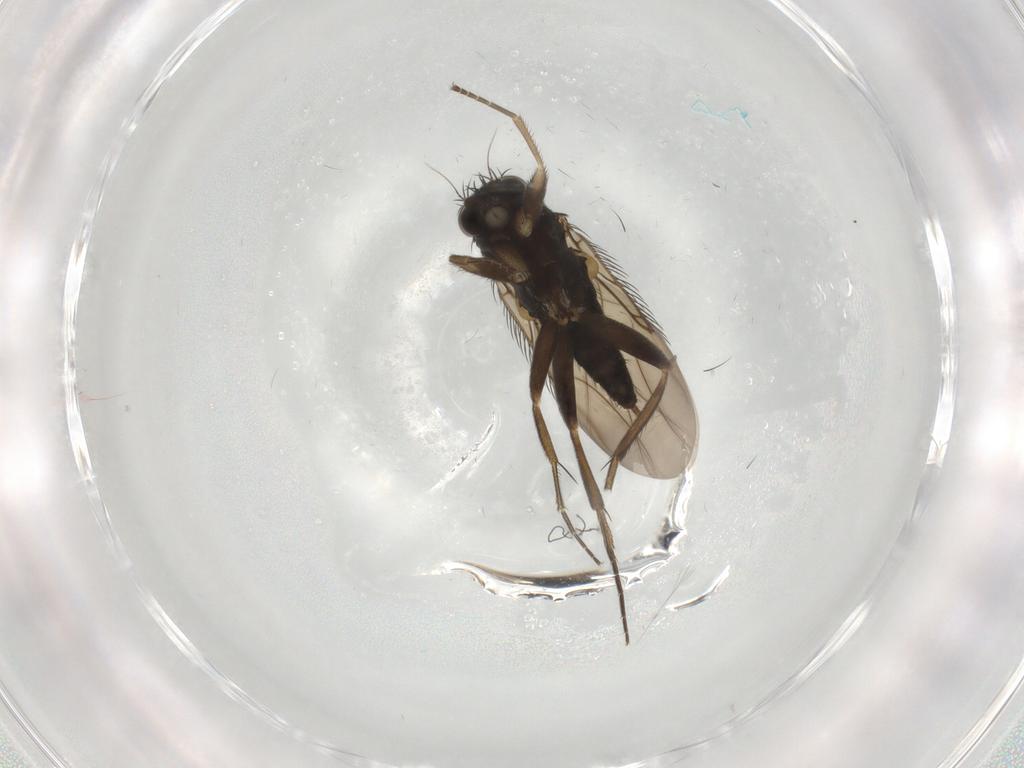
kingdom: Animalia
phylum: Arthropoda
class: Insecta
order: Diptera
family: Phoridae
